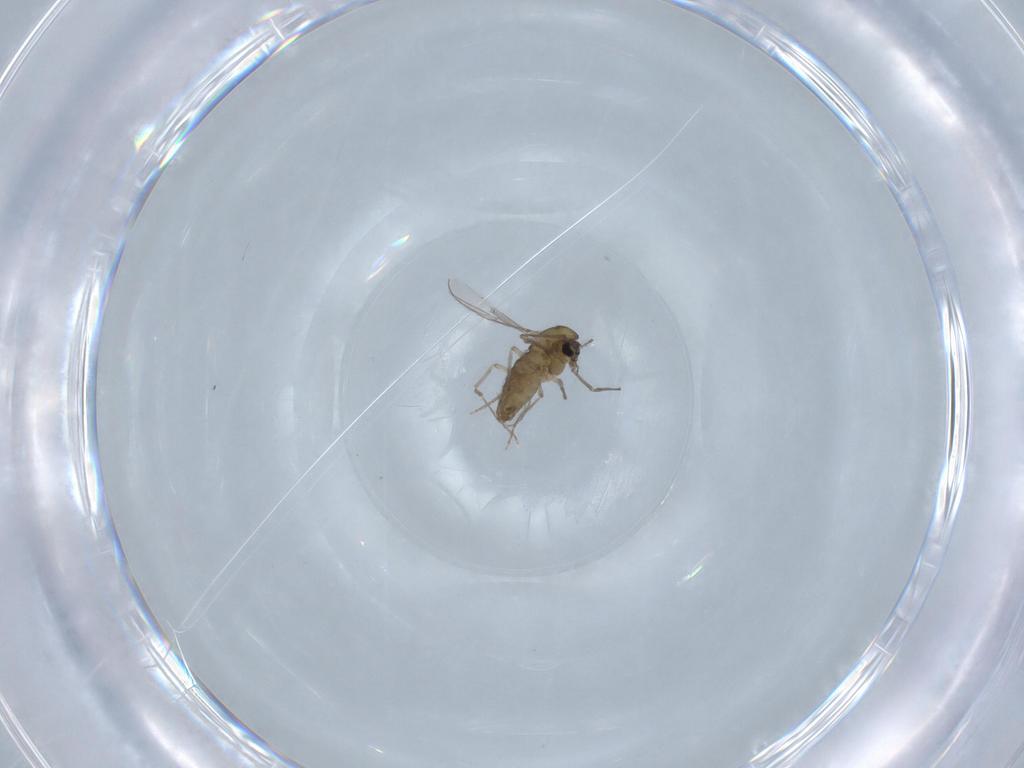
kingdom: Animalia
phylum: Arthropoda
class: Insecta
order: Diptera
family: Chironomidae
